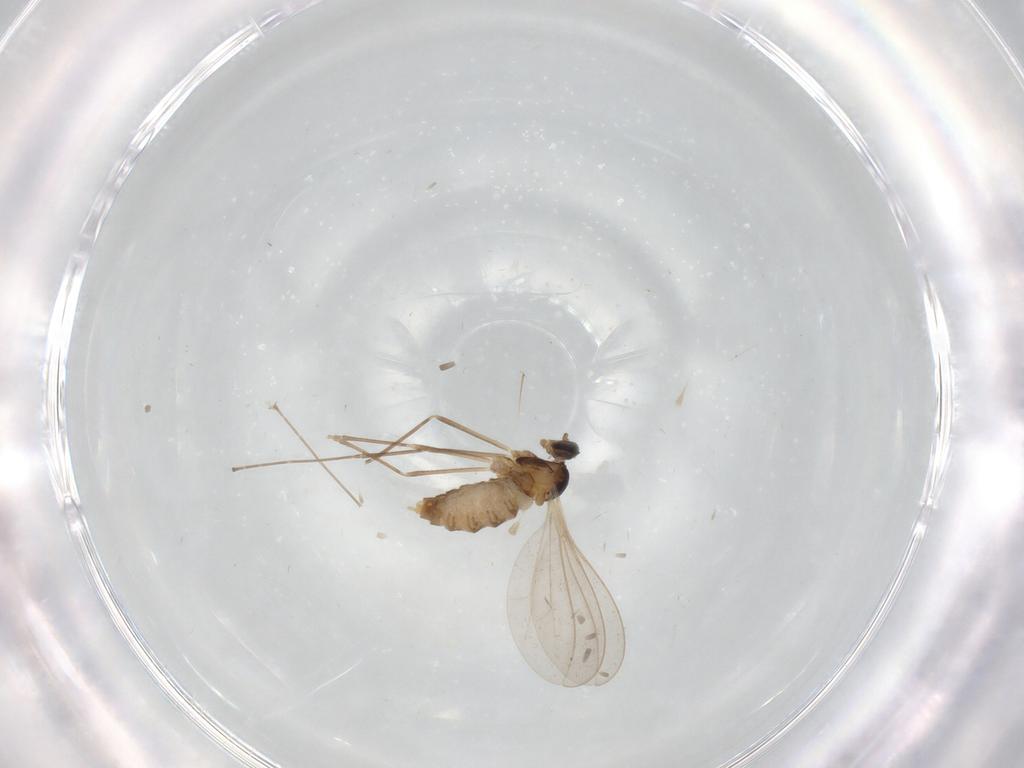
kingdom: Animalia
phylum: Arthropoda
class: Insecta
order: Diptera
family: Cecidomyiidae
